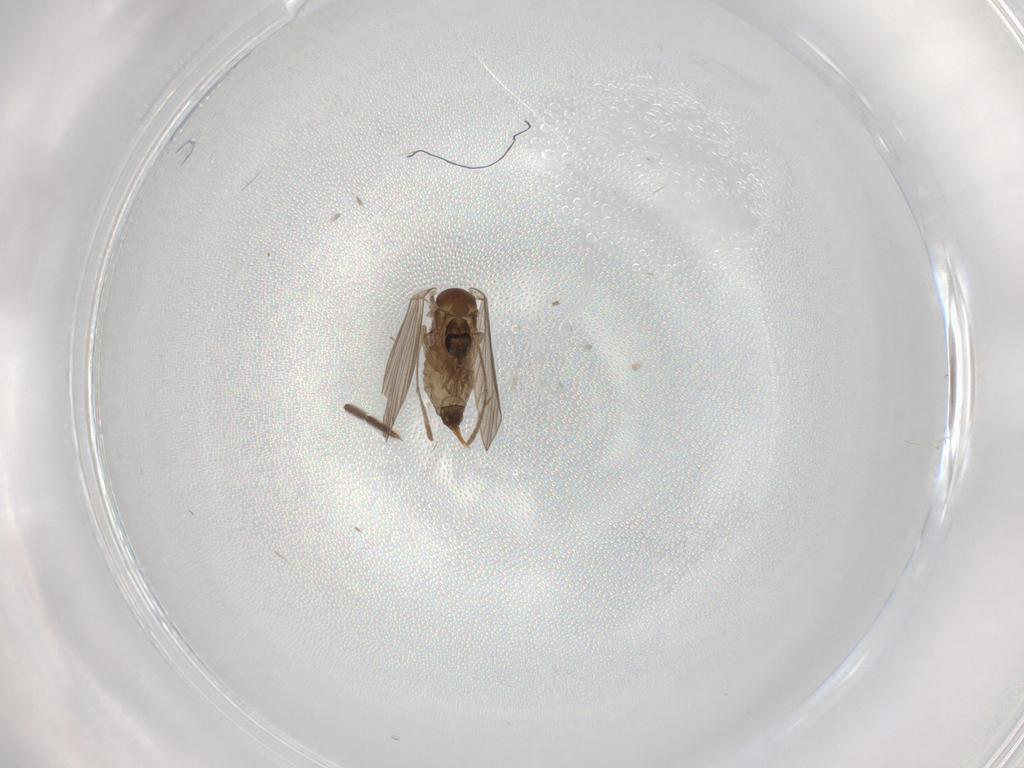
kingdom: Animalia
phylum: Arthropoda
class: Insecta
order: Diptera
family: Psychodidae
